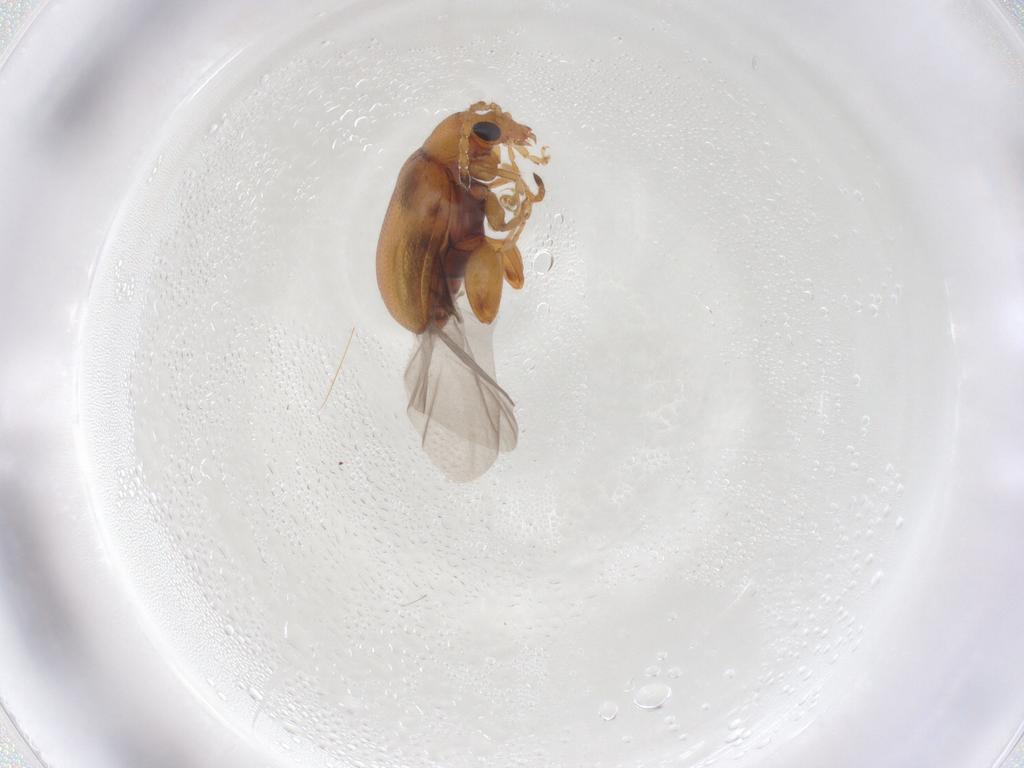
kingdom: Animalia
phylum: Arthropoda
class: Insecta
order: Coleoptera
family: Chrysomelidae
